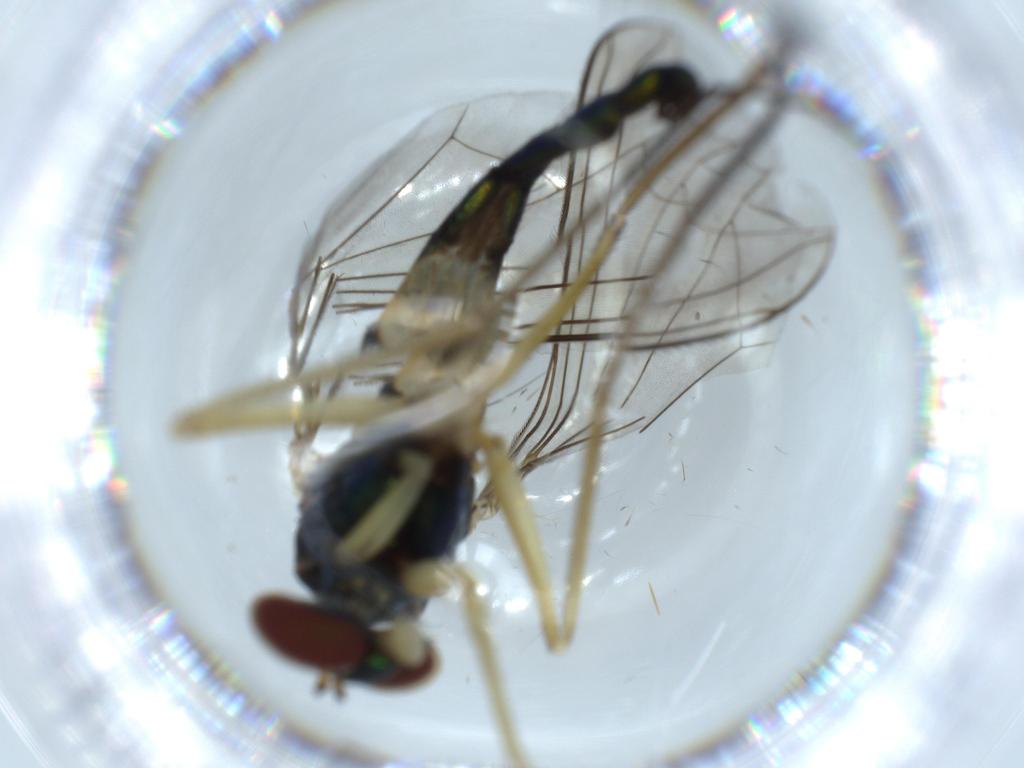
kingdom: Animalia
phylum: Arthropoda
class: Insecta
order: Diptera
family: Dolichopodidae
